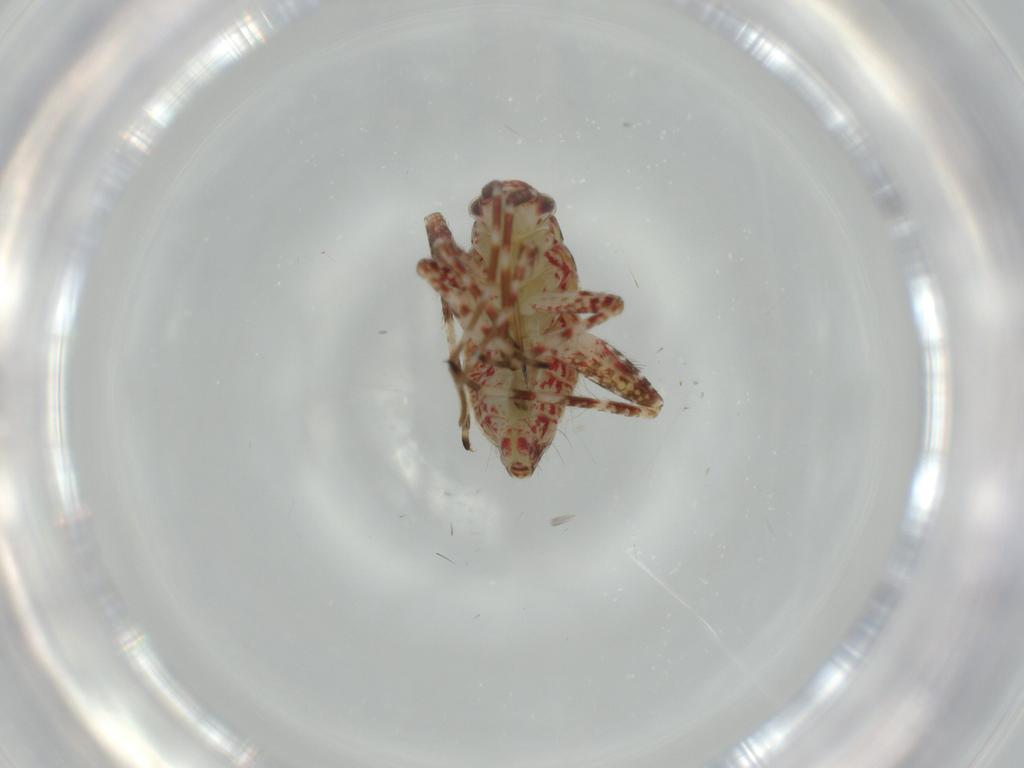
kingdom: Animalia
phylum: Arthropoda
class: Insecta
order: Hemiptera
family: Miridae
